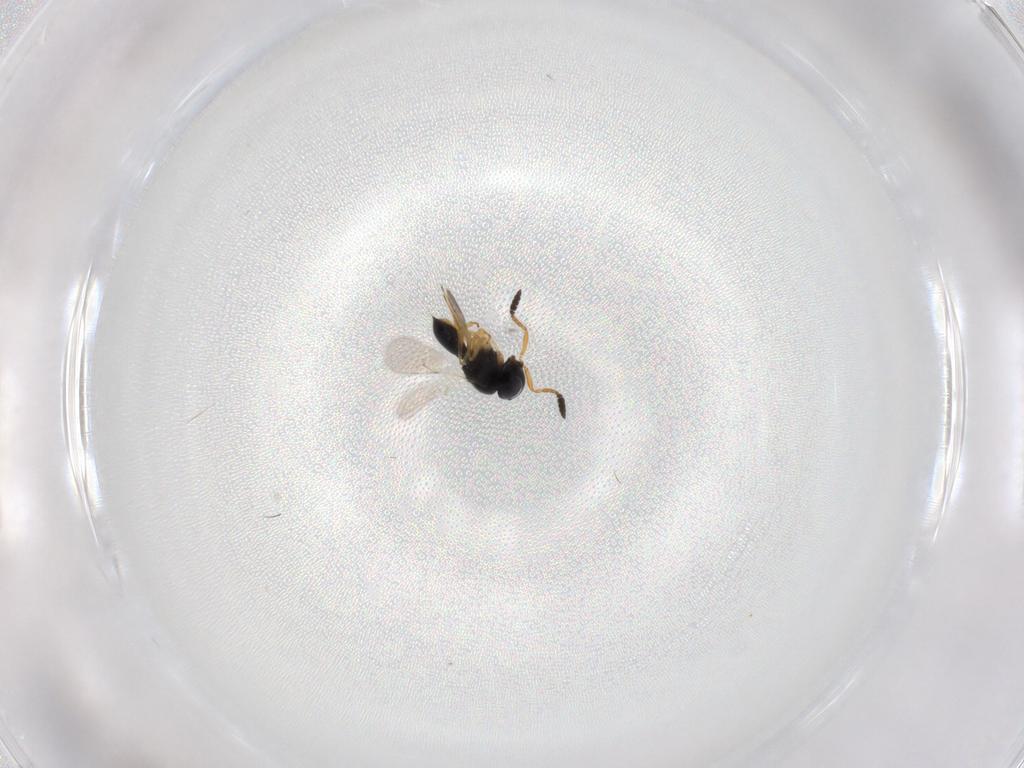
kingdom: Animalia
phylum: Arthropoda
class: Insecta
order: Hymenoptera
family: Scelionidae
